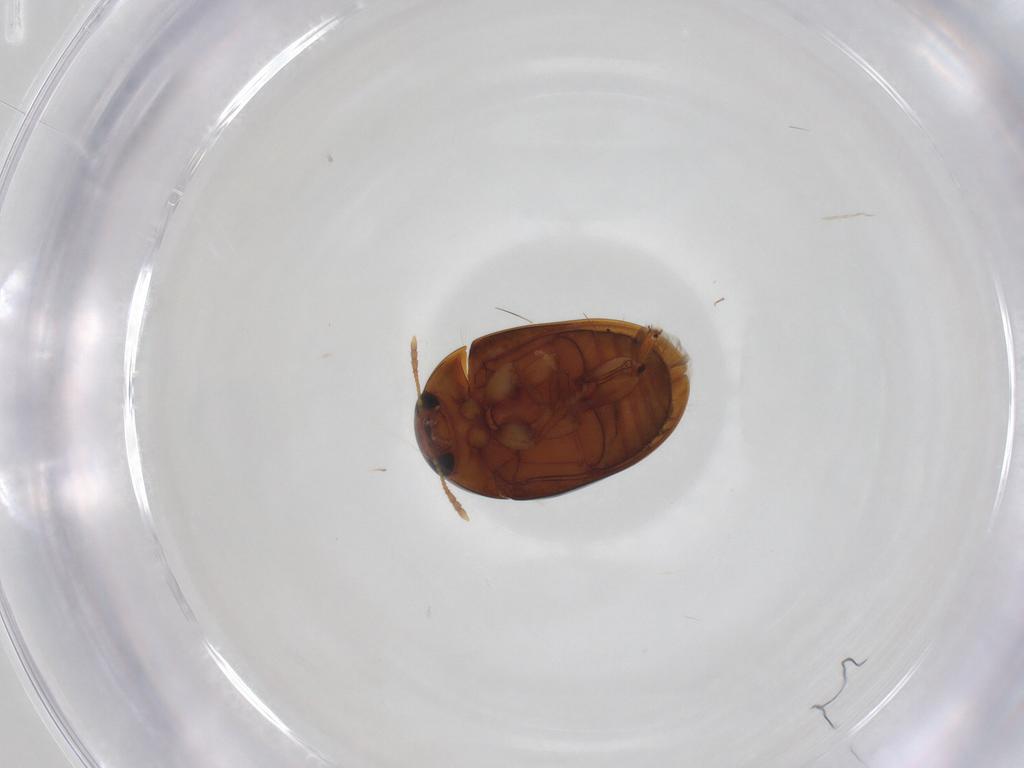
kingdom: Animalia
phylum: Arthropoda
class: Insecta
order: Coleoptera
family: Phalacridae
